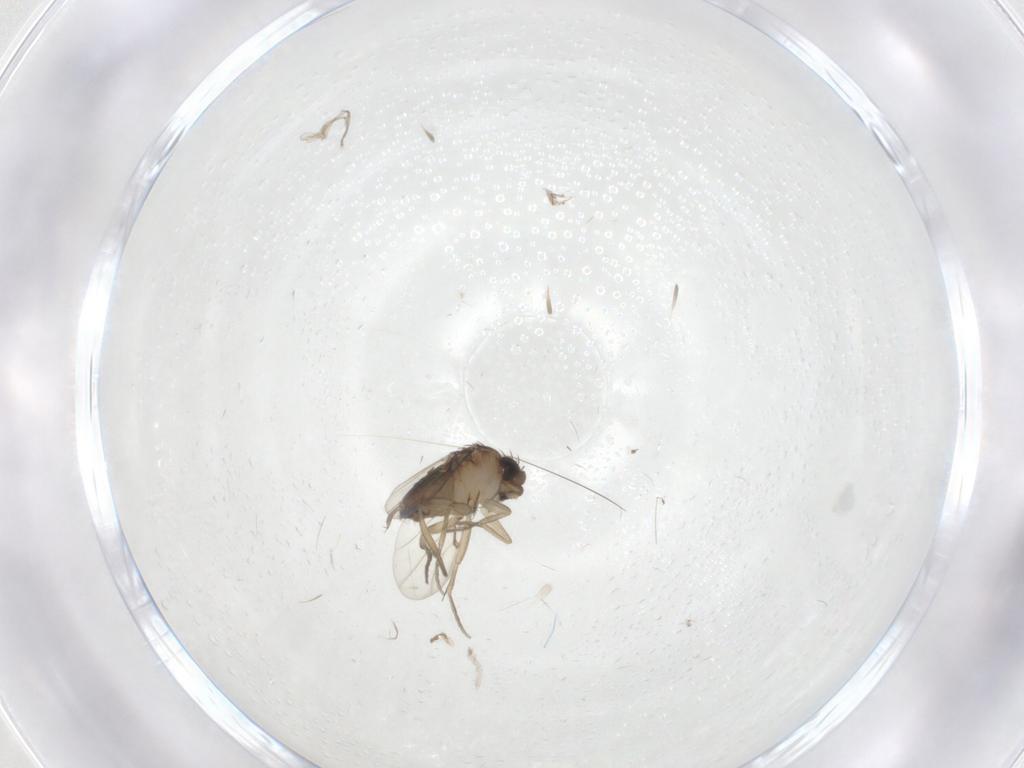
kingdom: Animalia
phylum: Arthropoda
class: Insecta
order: Diptera
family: Chironomidae
